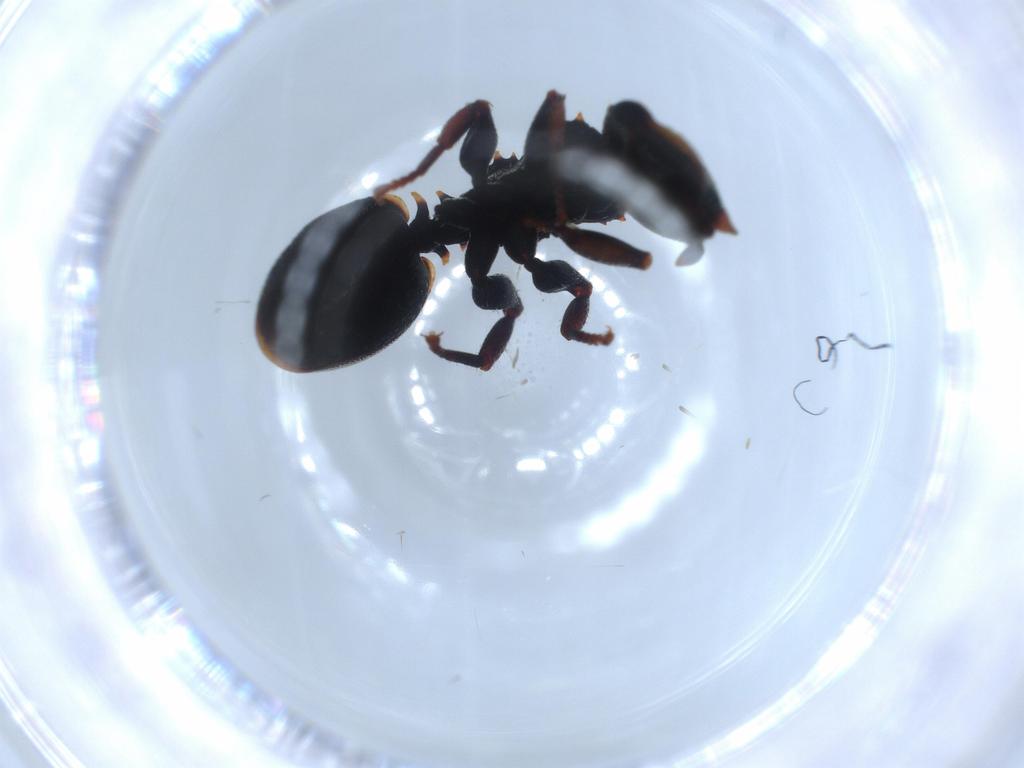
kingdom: Animalia
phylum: Arthropoda
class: Insecta
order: Hymenoptera
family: Formicidae
